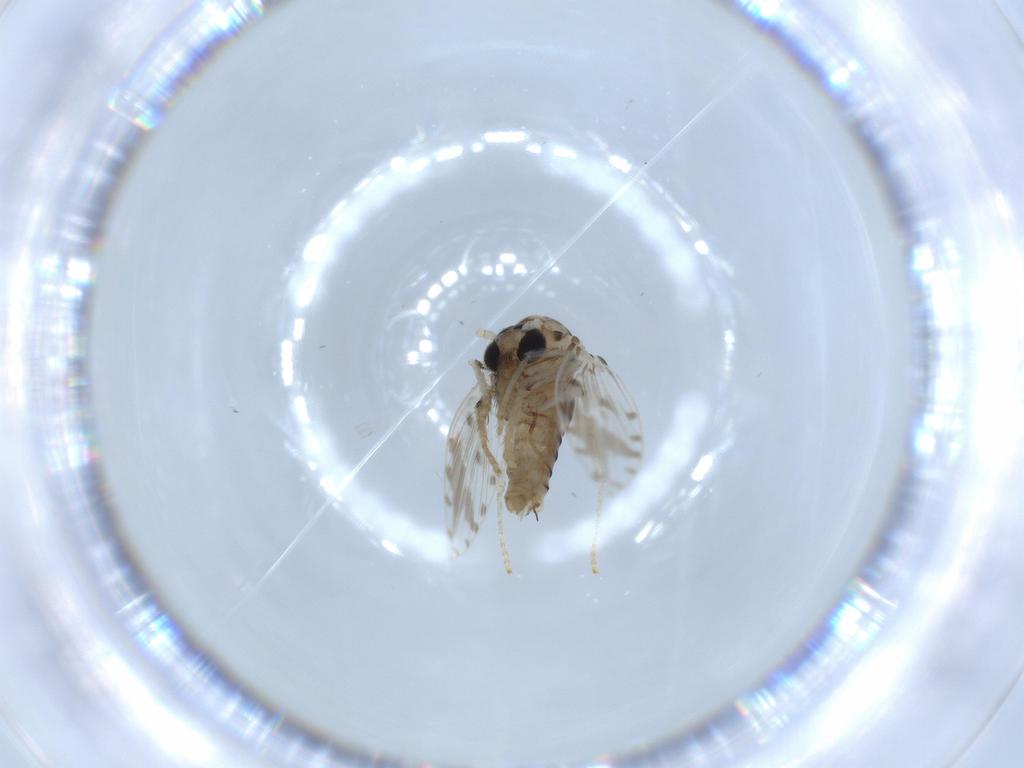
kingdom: Animalia
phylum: Arthropoda
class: Insecta
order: Diptera
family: Psychodidae
